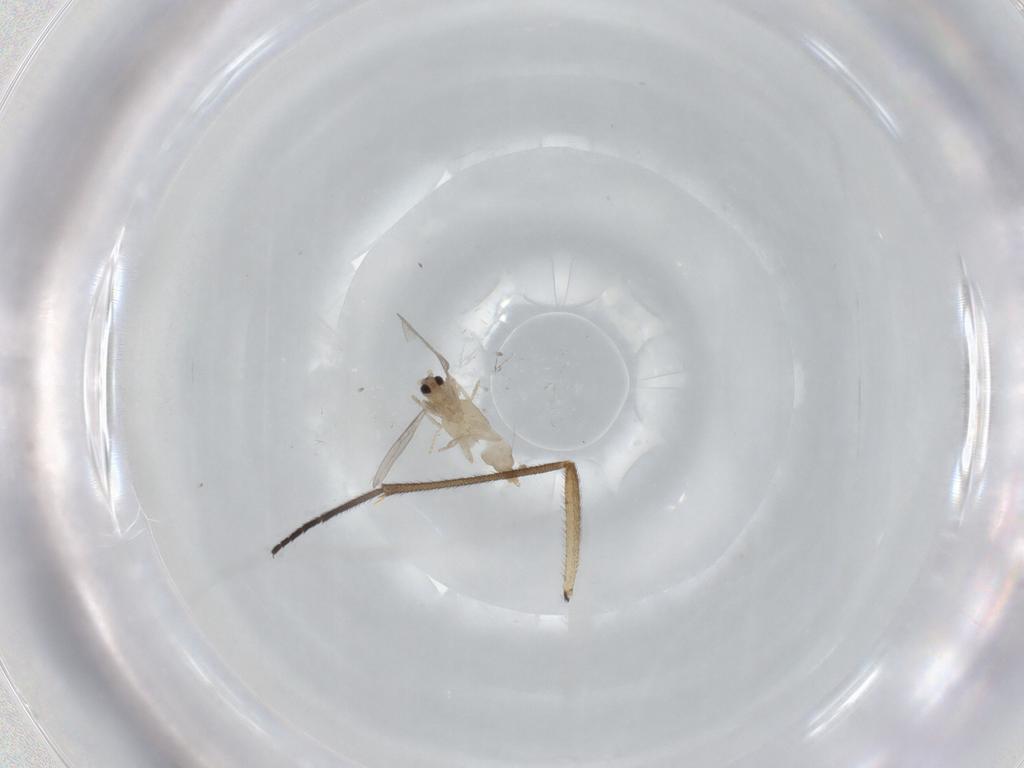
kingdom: Animalia
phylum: Arthropoda
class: Insecta
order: Diptera
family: Cecidomyiidae
